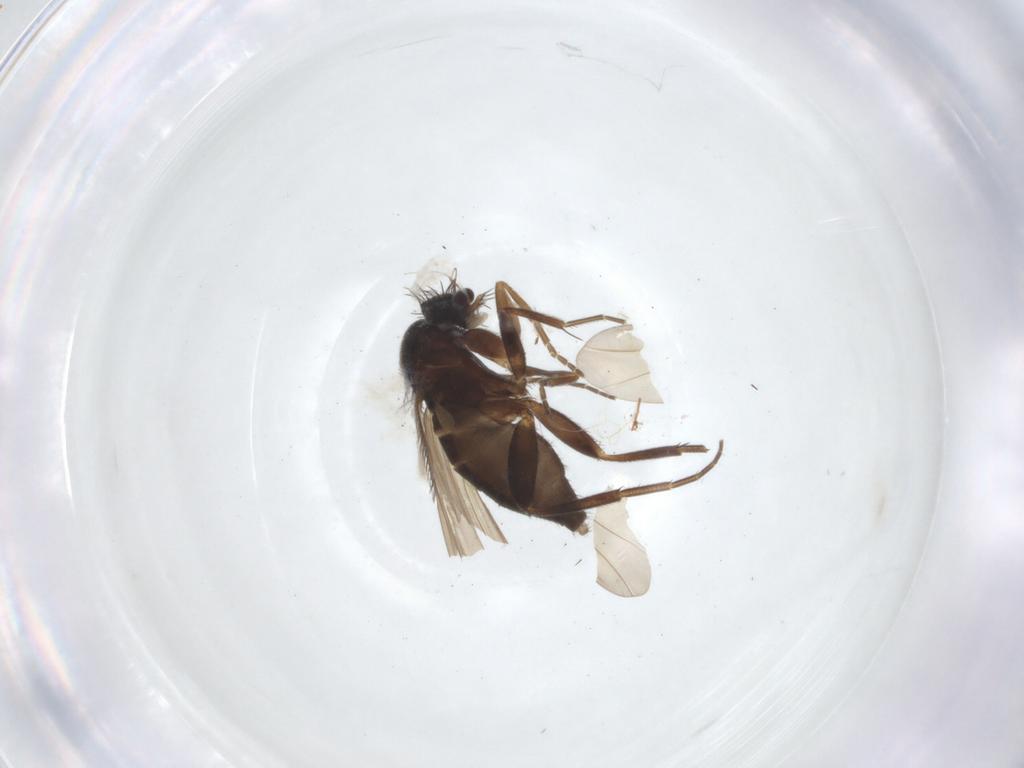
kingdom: Animalia
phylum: Arthropoda
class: Insecta
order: Diptera
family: Phoridae
